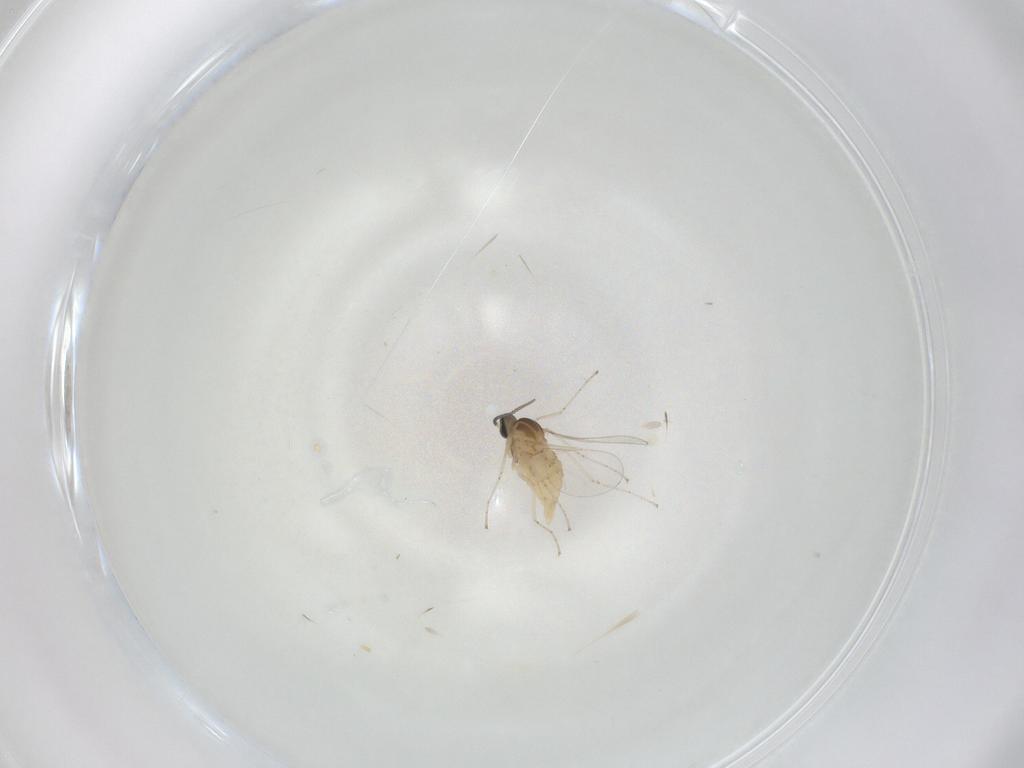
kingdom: Animalia
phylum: Arthropoda
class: Insecta
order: Diptera
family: Cecidomyiidae
